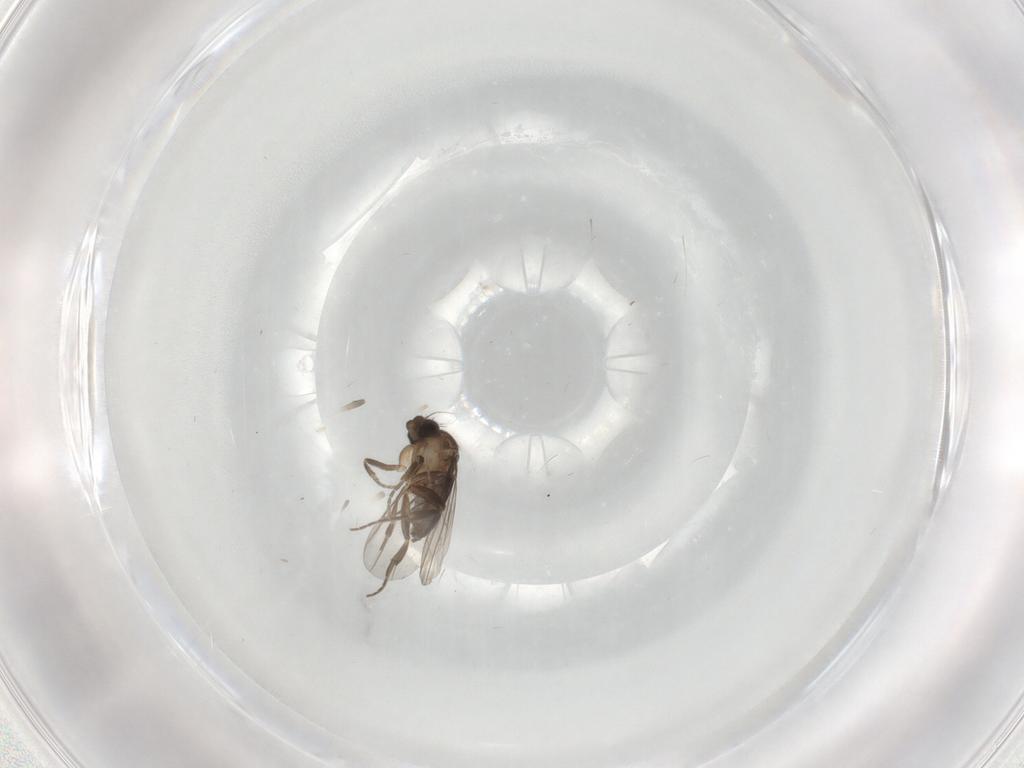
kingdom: Animalia
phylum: Arthropoda
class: Insecta
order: Diptera
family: Phoridae
